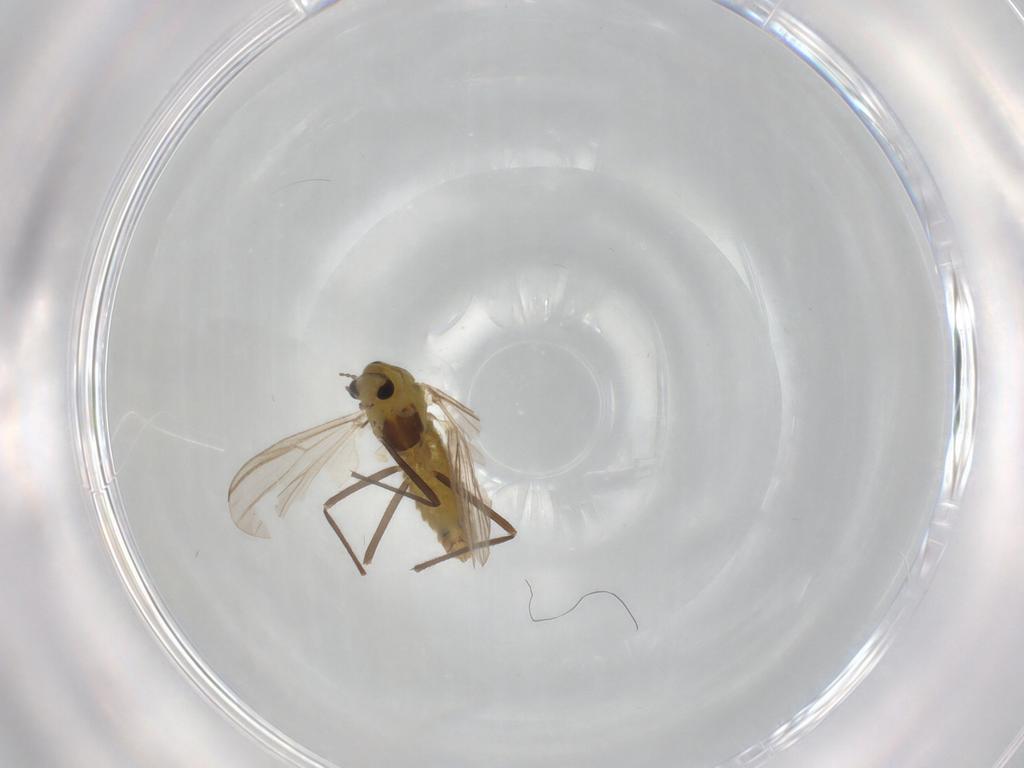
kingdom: Animalia
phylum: Arthropoda
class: Insecta
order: Diptera
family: Chironomidae
